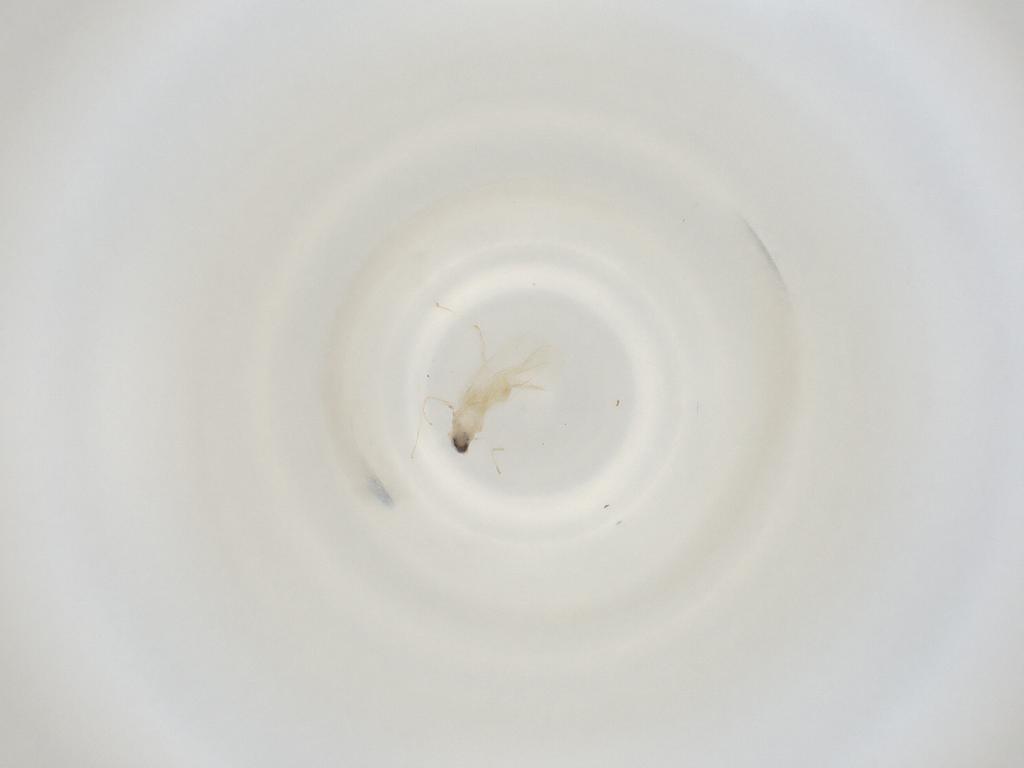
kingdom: Animalia
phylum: Arthropoda
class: Insecta
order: Diptera
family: Cecidomyiidae
